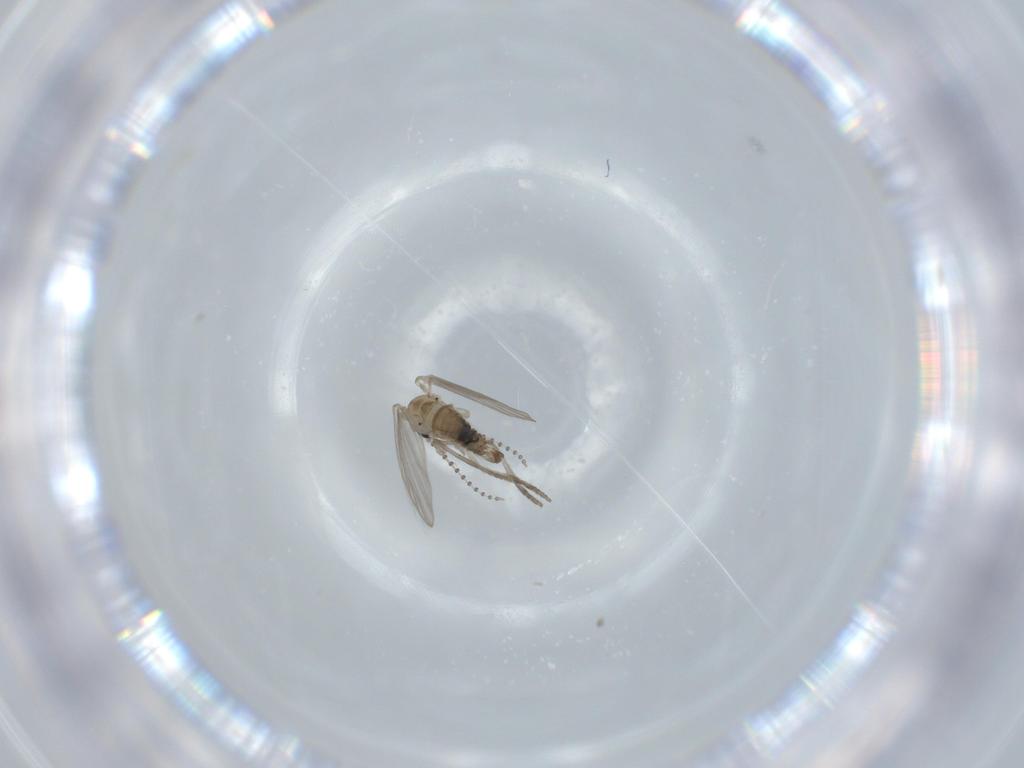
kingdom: Animalia
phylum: Arthropoda
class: Insecta
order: Diptera
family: Psychodidae
